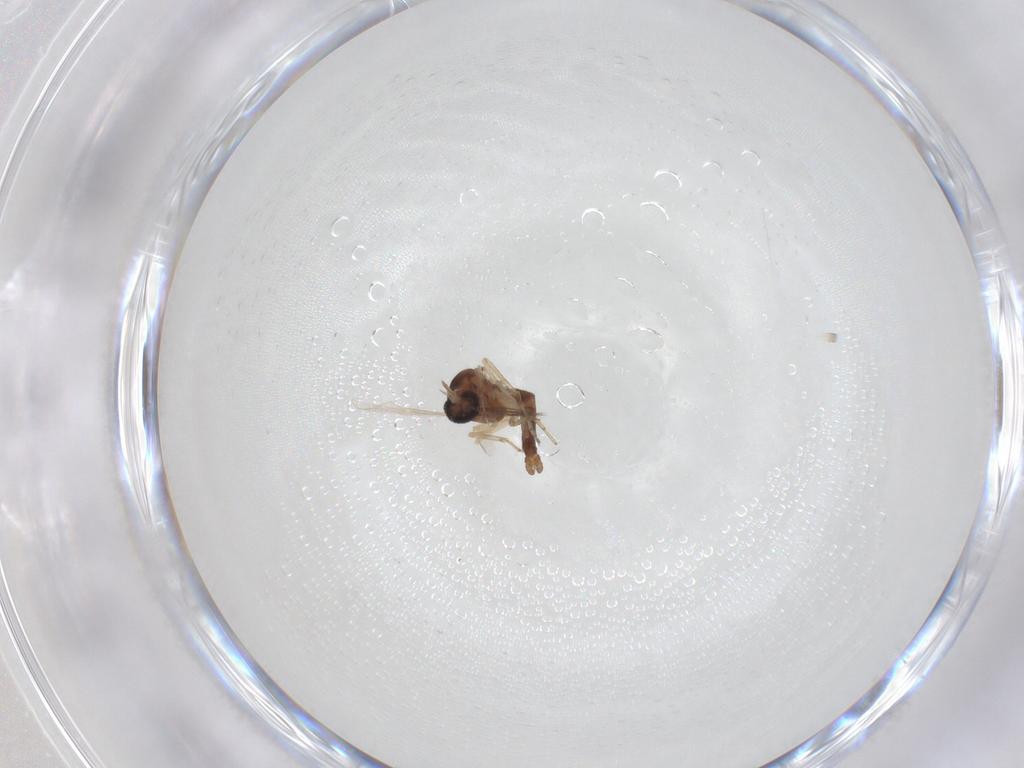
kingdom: Animalia
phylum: Arthropoda
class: Insecta
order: Diptera
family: Ceratopogonidae
